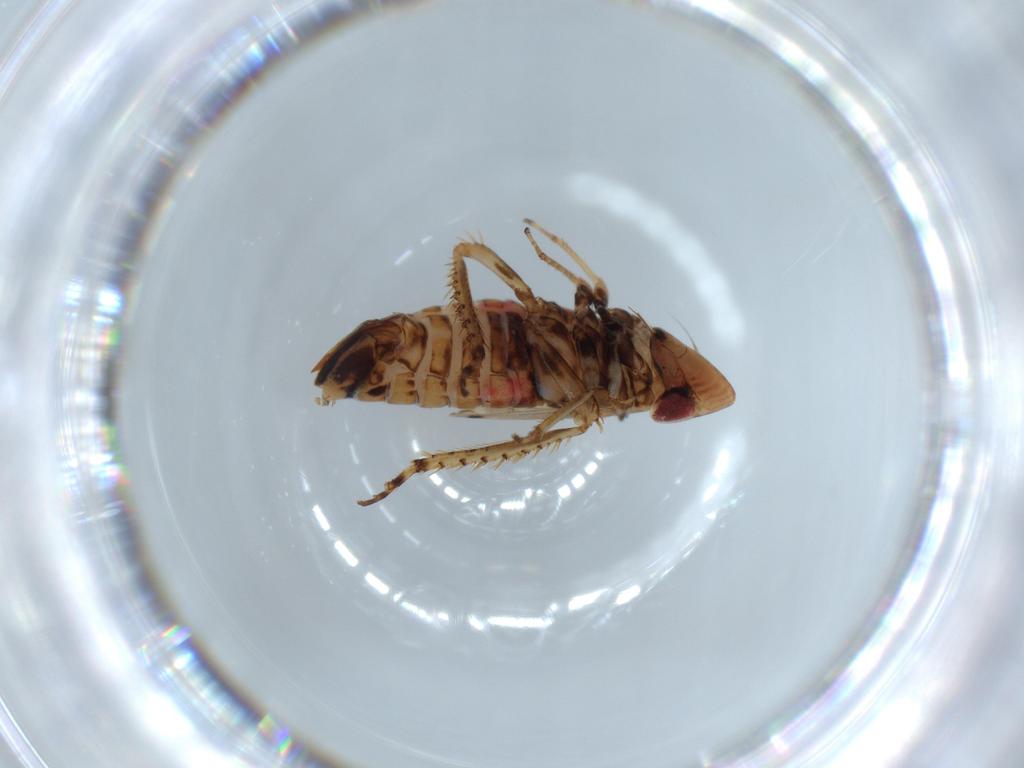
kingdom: Animalia
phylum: Arthropoda
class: Insecta
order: Hemiptera
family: Cicadellidae
